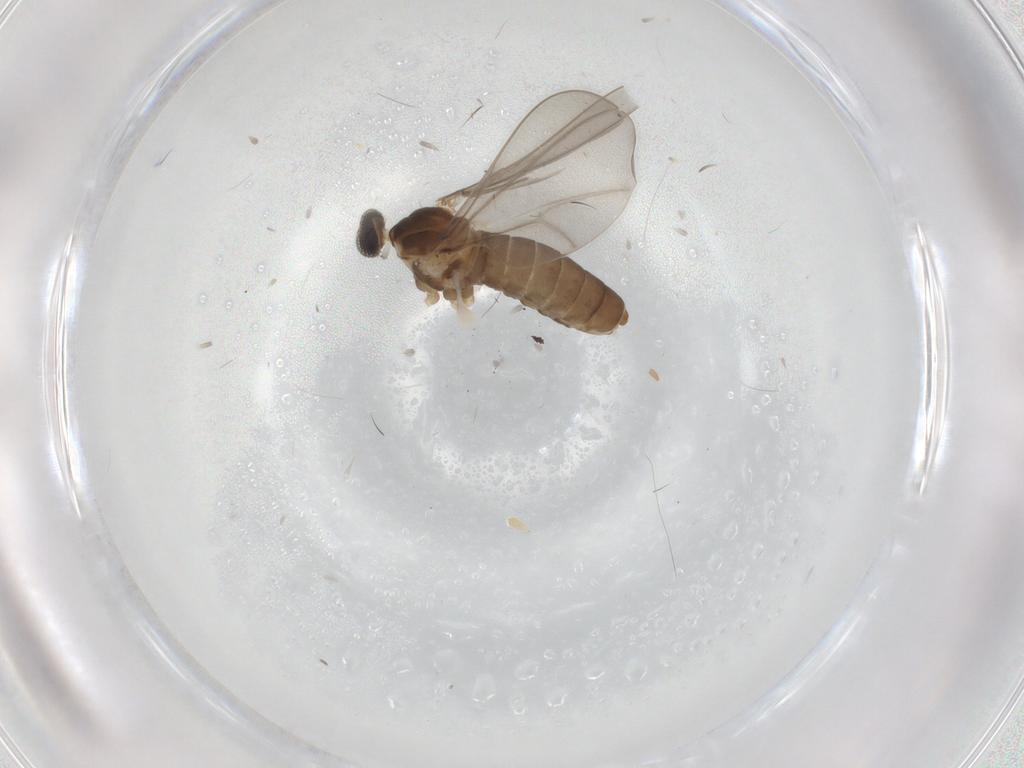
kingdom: Animalia
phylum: Arthropoda
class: Insecta
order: Diptera
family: Cecidomyiidae
